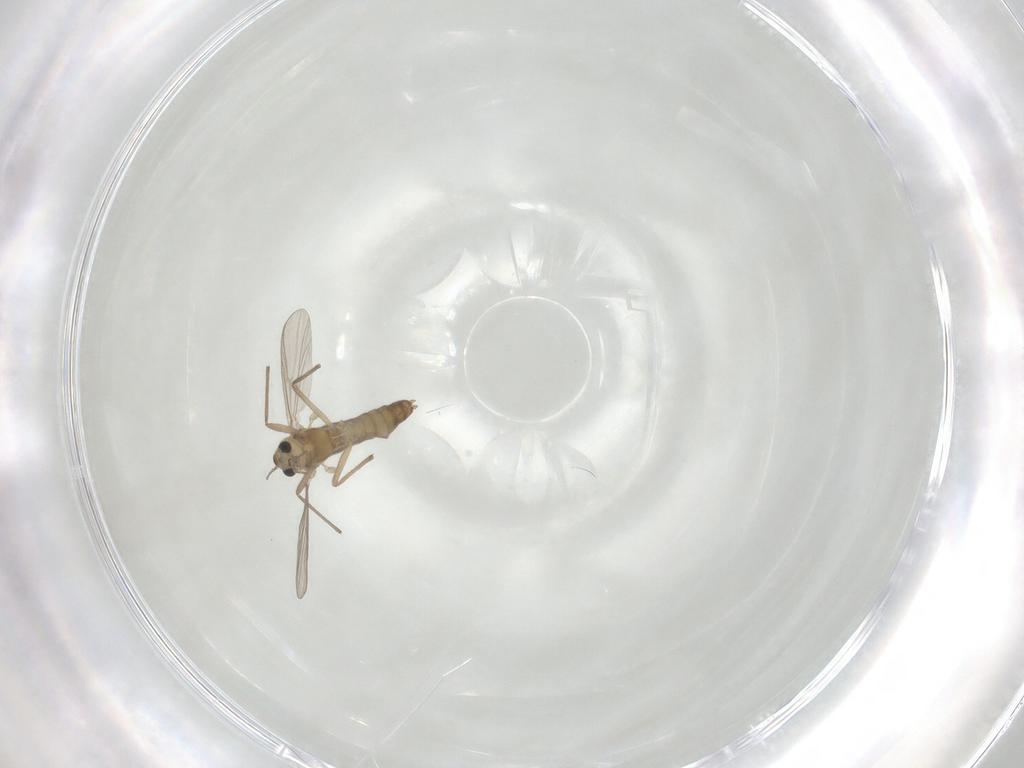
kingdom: Animalia
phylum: Arthropoda
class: Insecta
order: Diptera
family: Chironomidae
